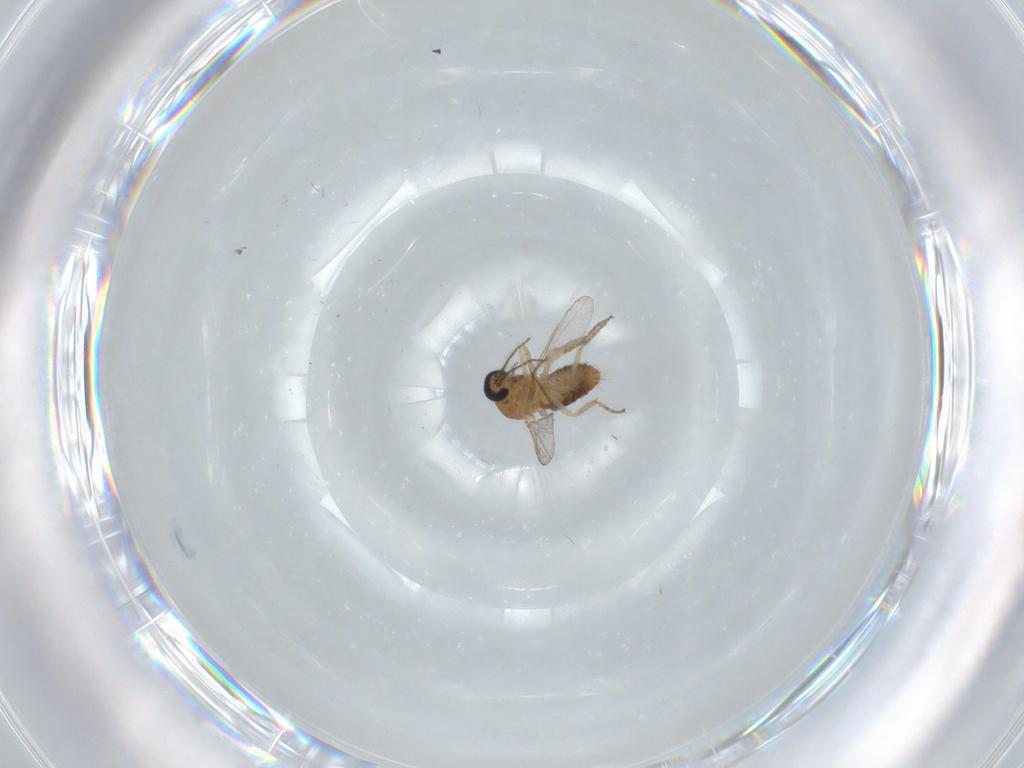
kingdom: Animalia
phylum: Arthropoda
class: Insecta
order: Diptera
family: Ceratopogonidae
